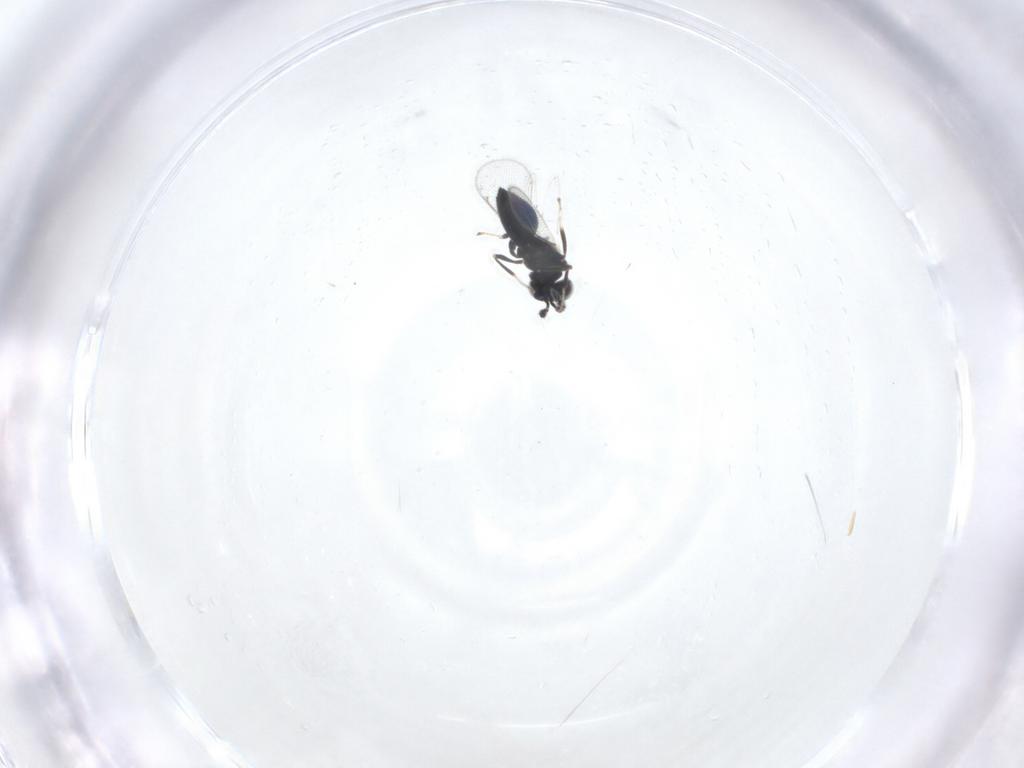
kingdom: Animalia
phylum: Arthropoda
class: Insecta
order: Hymenoptera
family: Eulophidae
